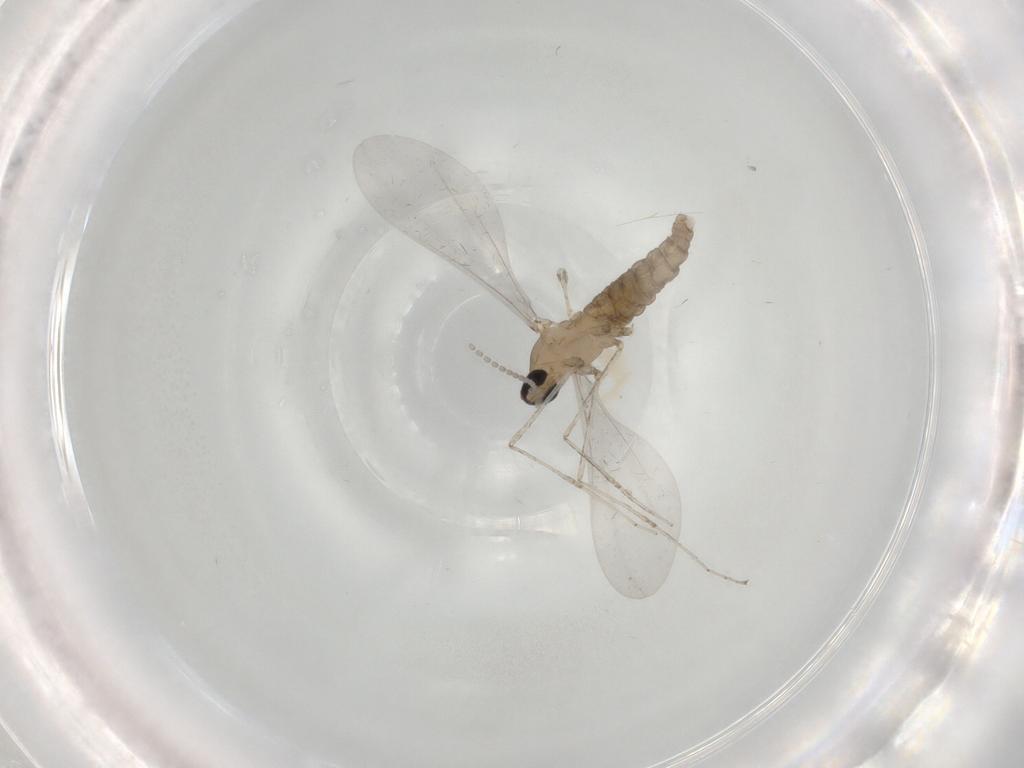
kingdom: Animalia
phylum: Arthropoda
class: Insecta
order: Diptera
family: Cecidomyiidae
